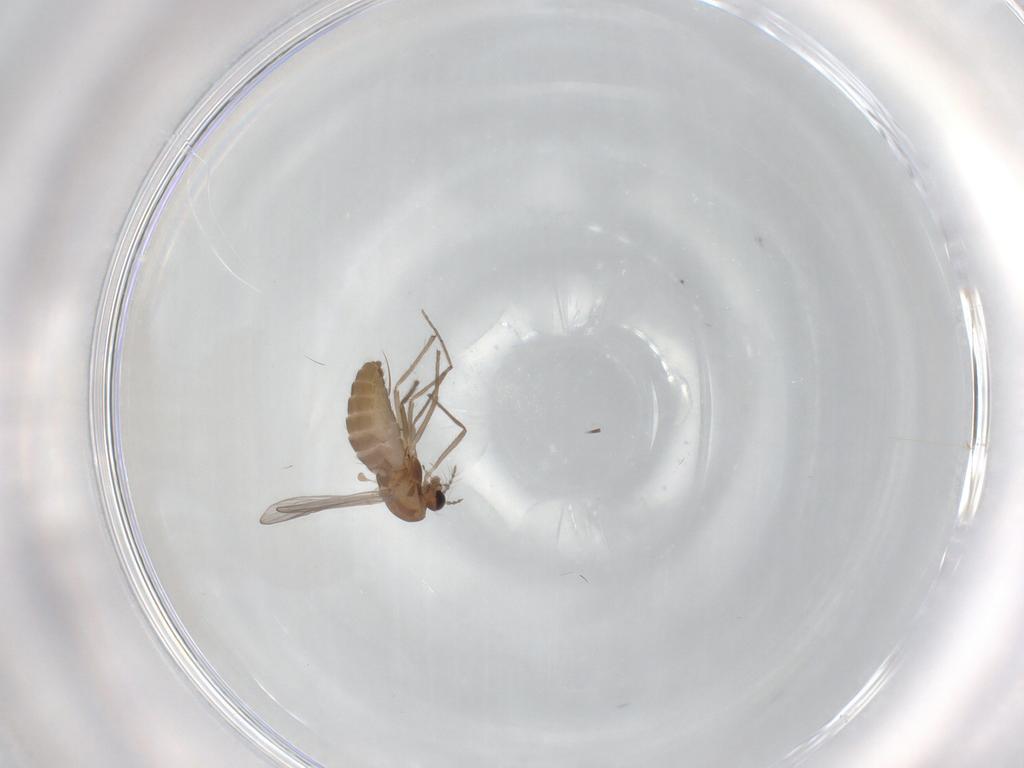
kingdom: Animalia
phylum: Arthropoda
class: Insecta
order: Diptera
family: Chironomidae
